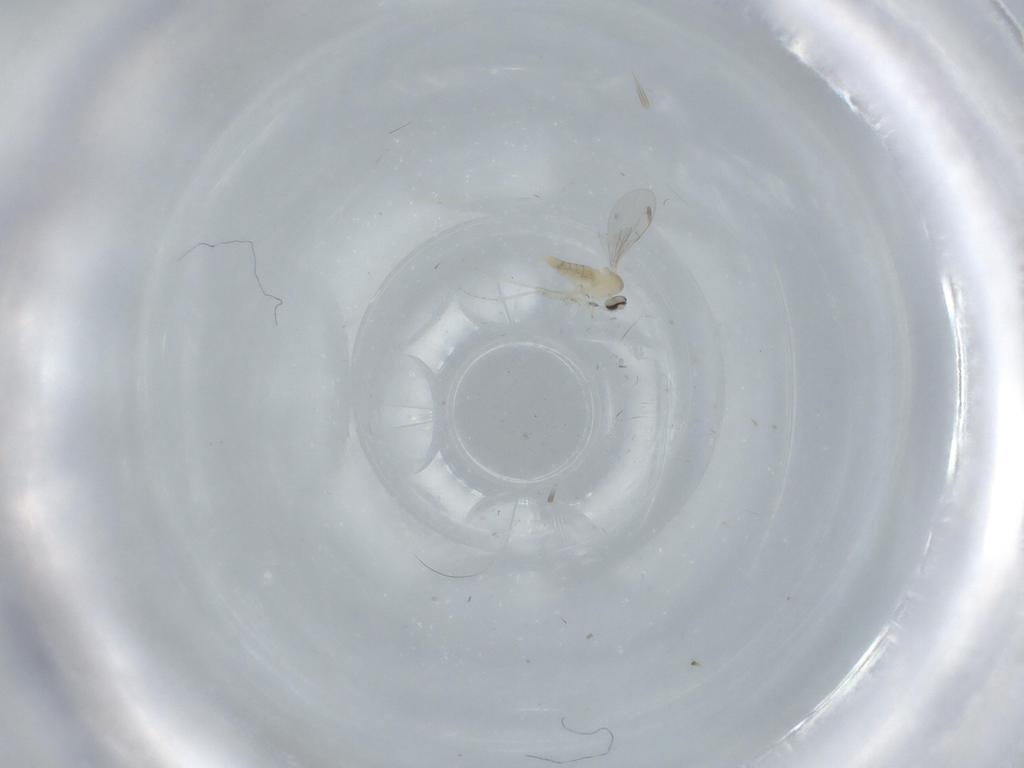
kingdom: Animalia
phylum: Arthropoda
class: Insecta
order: Diptera
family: Cecidomyiidae
